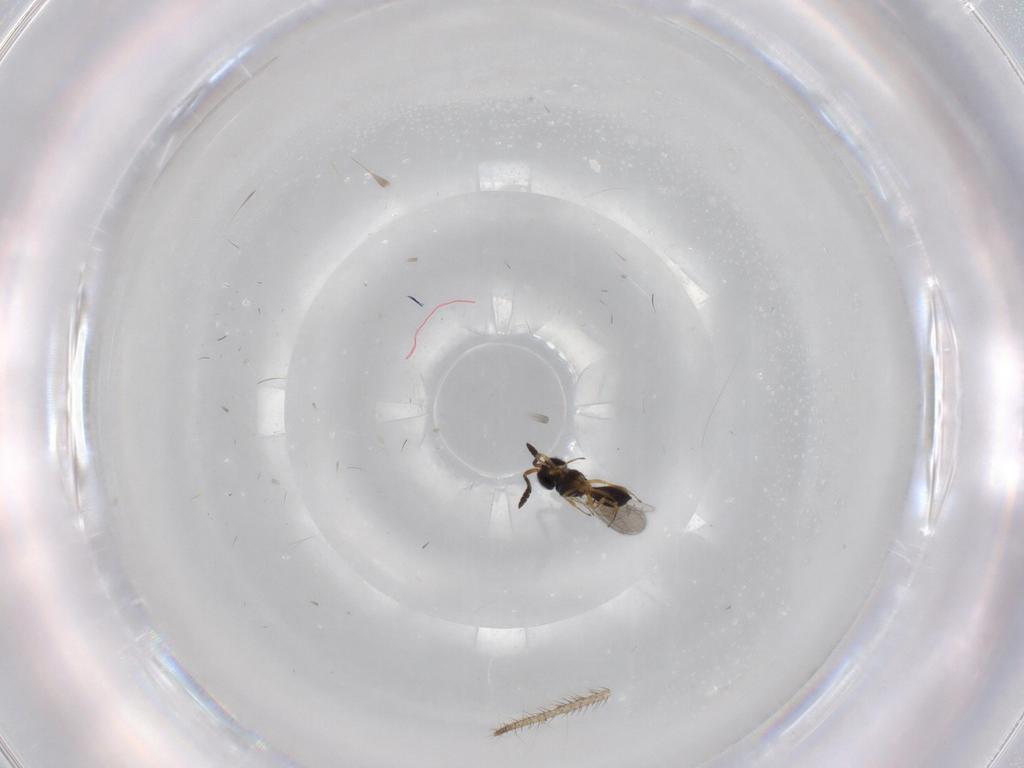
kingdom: Animalia
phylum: Arthropoda
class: Insecta
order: Hymenoptera
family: Scelionidae
